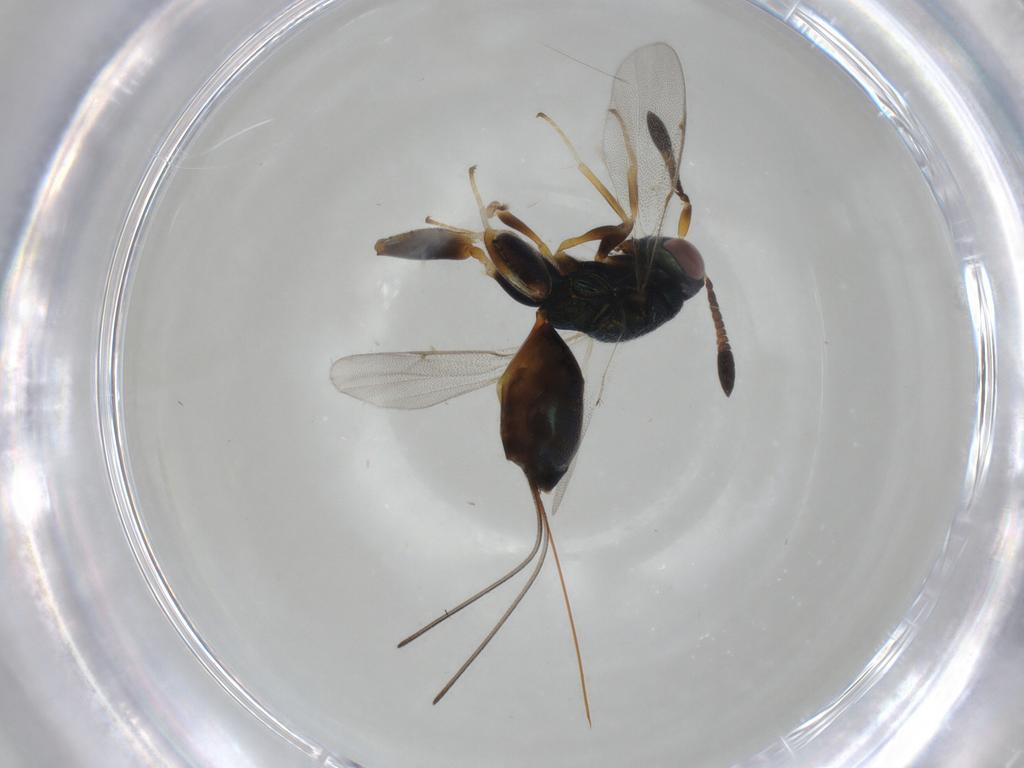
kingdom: Animalia
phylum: Arthropoda
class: Insecta
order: Hymenoptera
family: Torymidae
